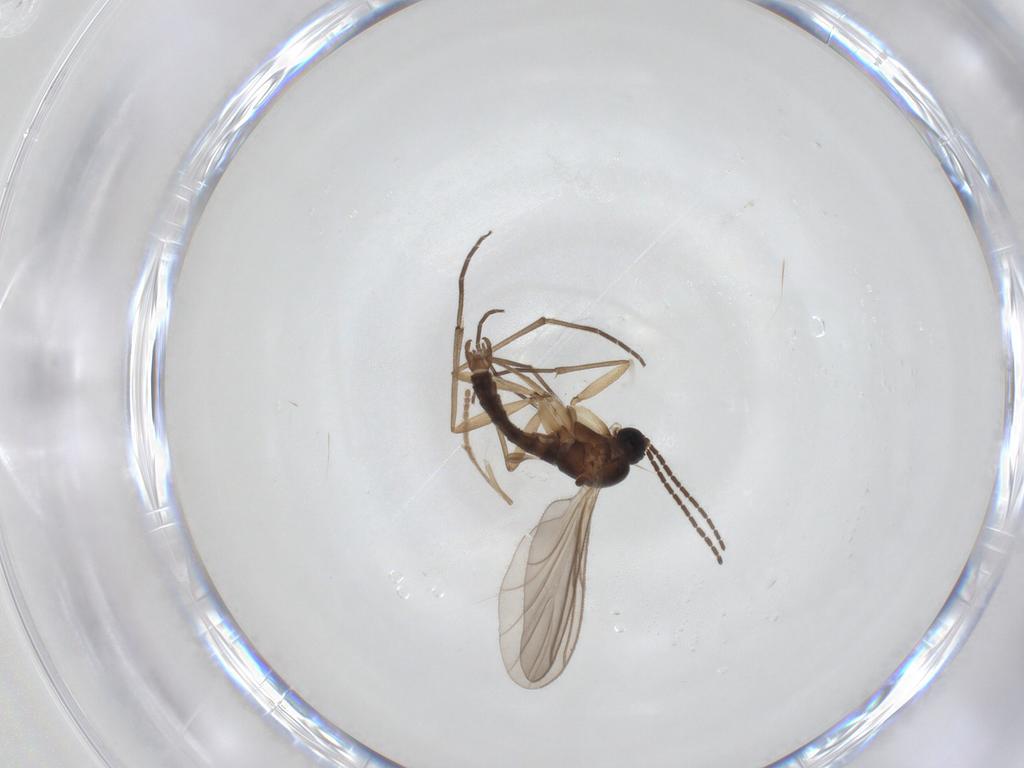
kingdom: Animalia
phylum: Arthropoda
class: Insecta
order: Diptera
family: Psychodidae
